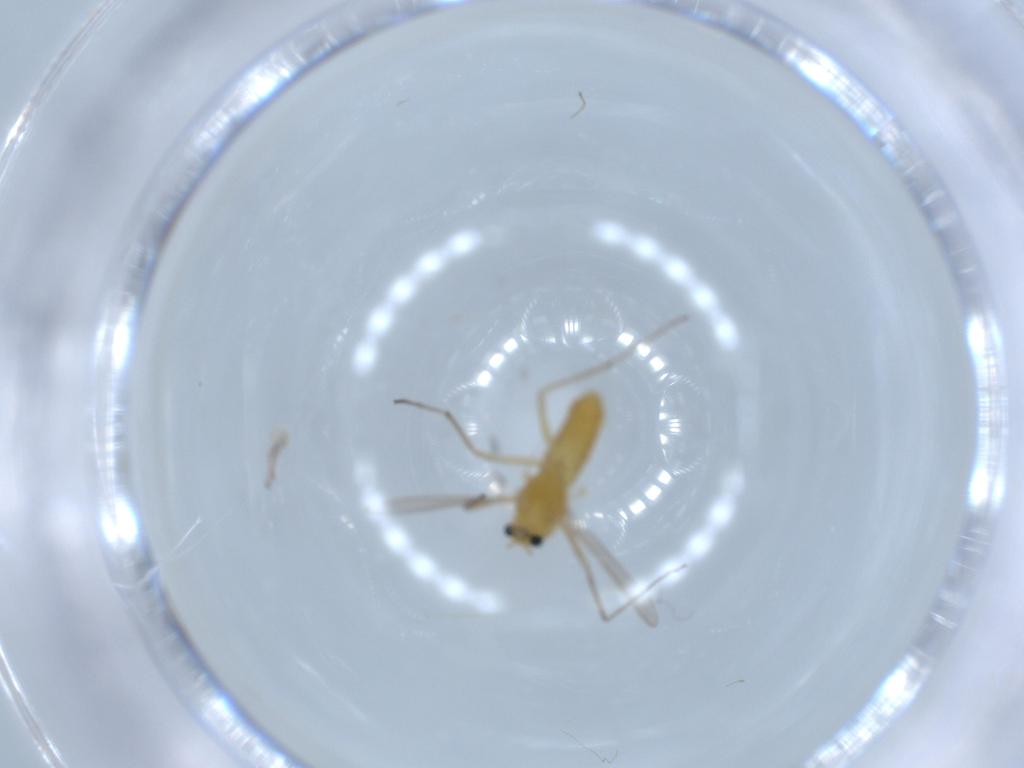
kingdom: Animalia
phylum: Arthropoda
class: Insecta
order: Diptera
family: Chironomidae
